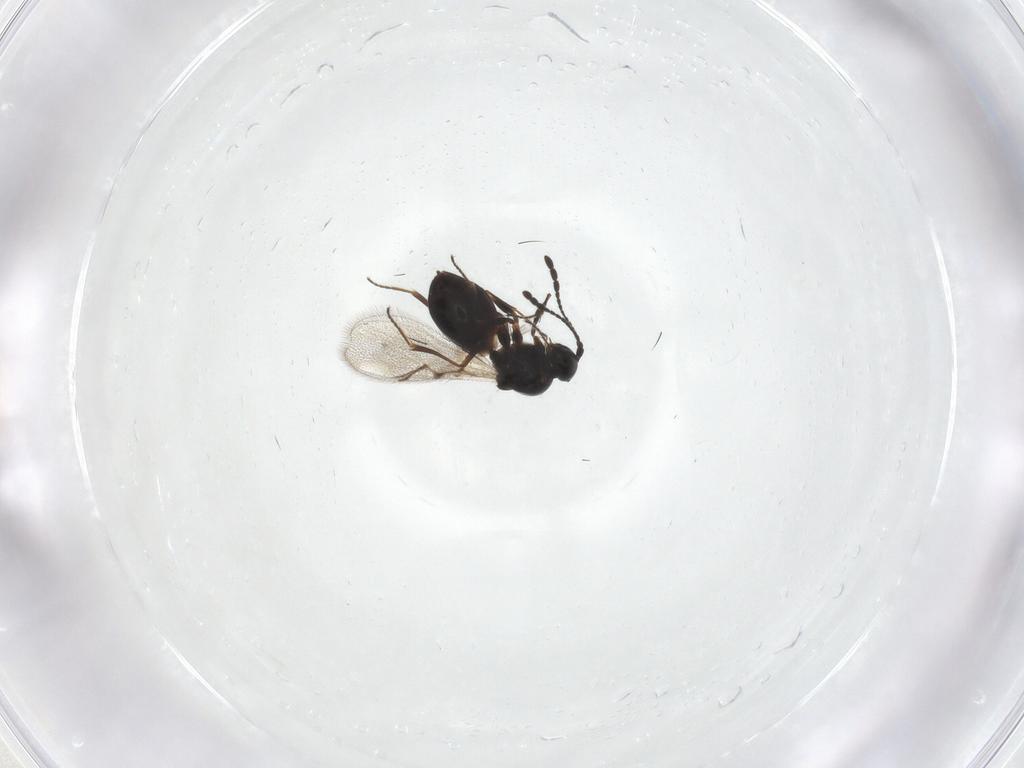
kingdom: Animalia
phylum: Arthropoda
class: Insecta
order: Hymenoptera
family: Figitidae
